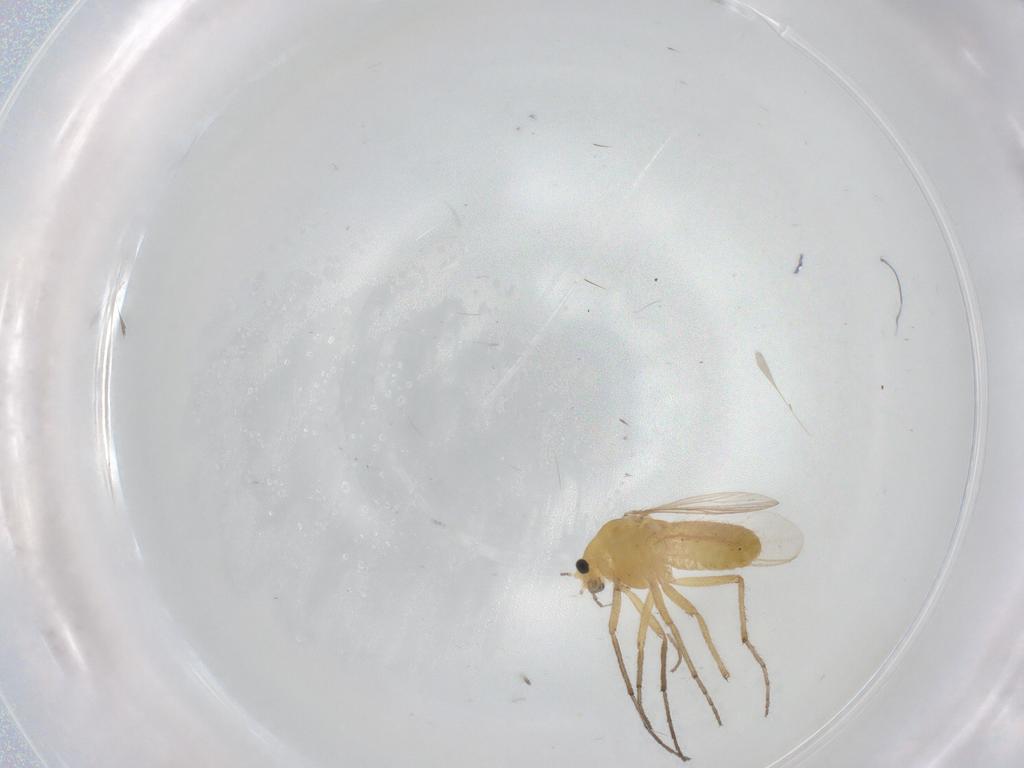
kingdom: Animalia
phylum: Arthropoda
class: Insecta
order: Diptera
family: Chironomidae
